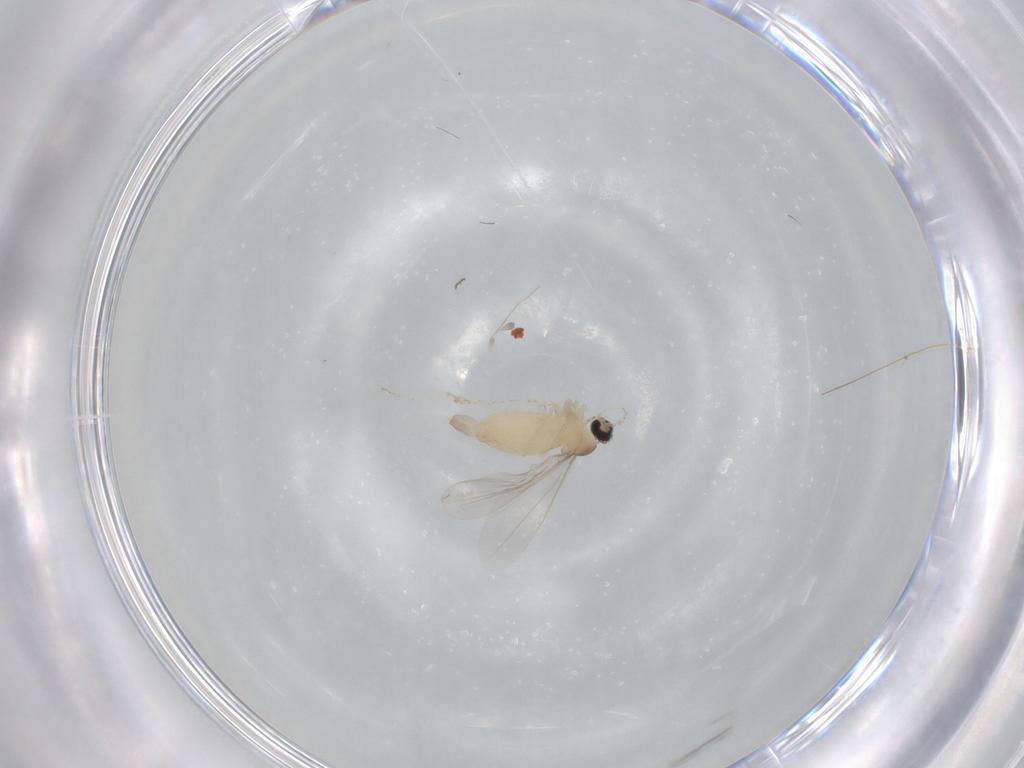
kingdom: Animalia
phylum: Arthropoda
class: Insecta
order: Diptera
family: Cecidomyiidae
